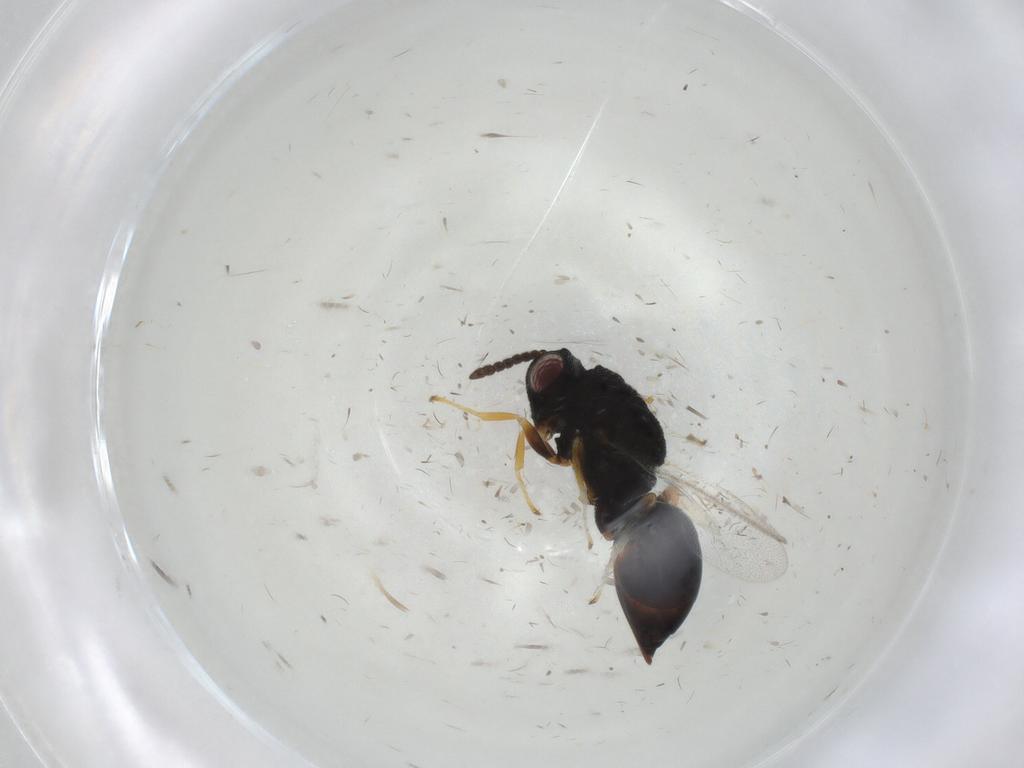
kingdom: Animalia
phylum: Arthropoda
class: Insecta
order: Hymenoptera
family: Eurytomidae
